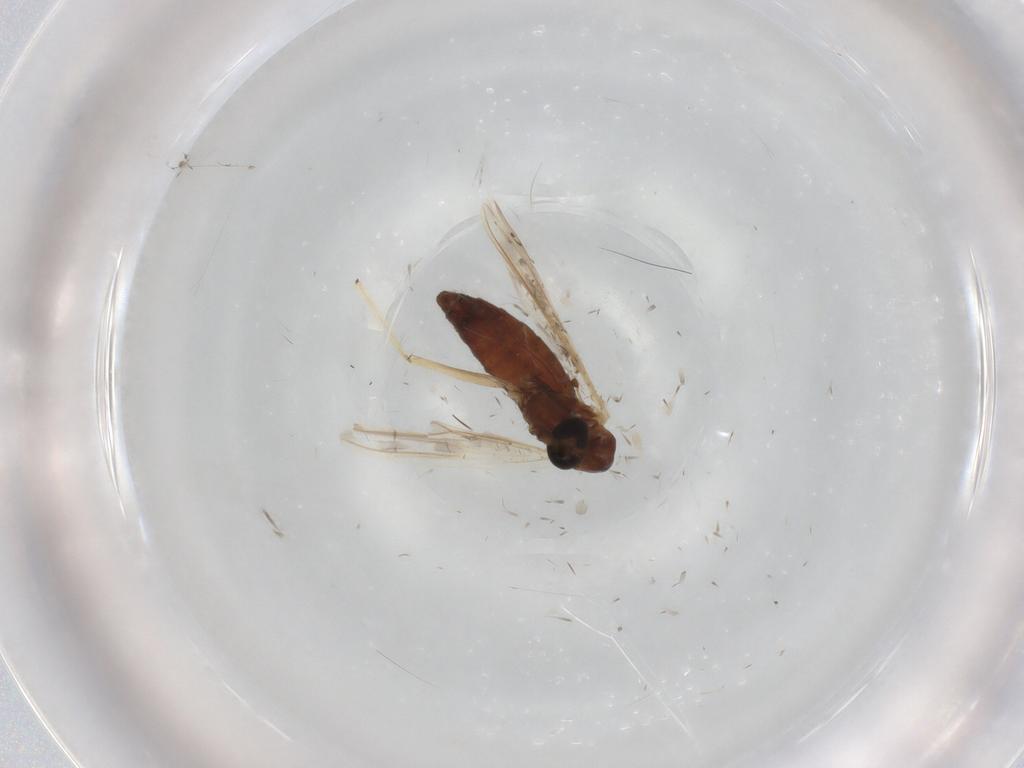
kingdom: Animalia
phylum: Arthropoda
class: Insecta
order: Diptera
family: Chironomidae
